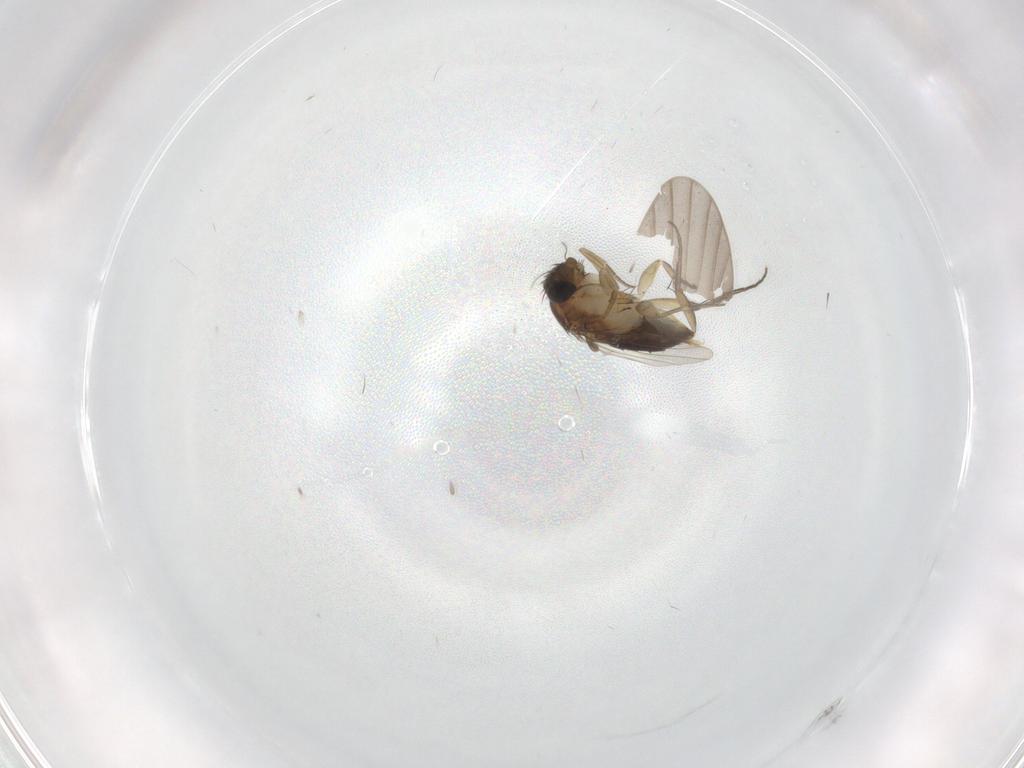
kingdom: Animalia
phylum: Arthropoda
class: Insecta
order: Diptera
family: Phoridae
